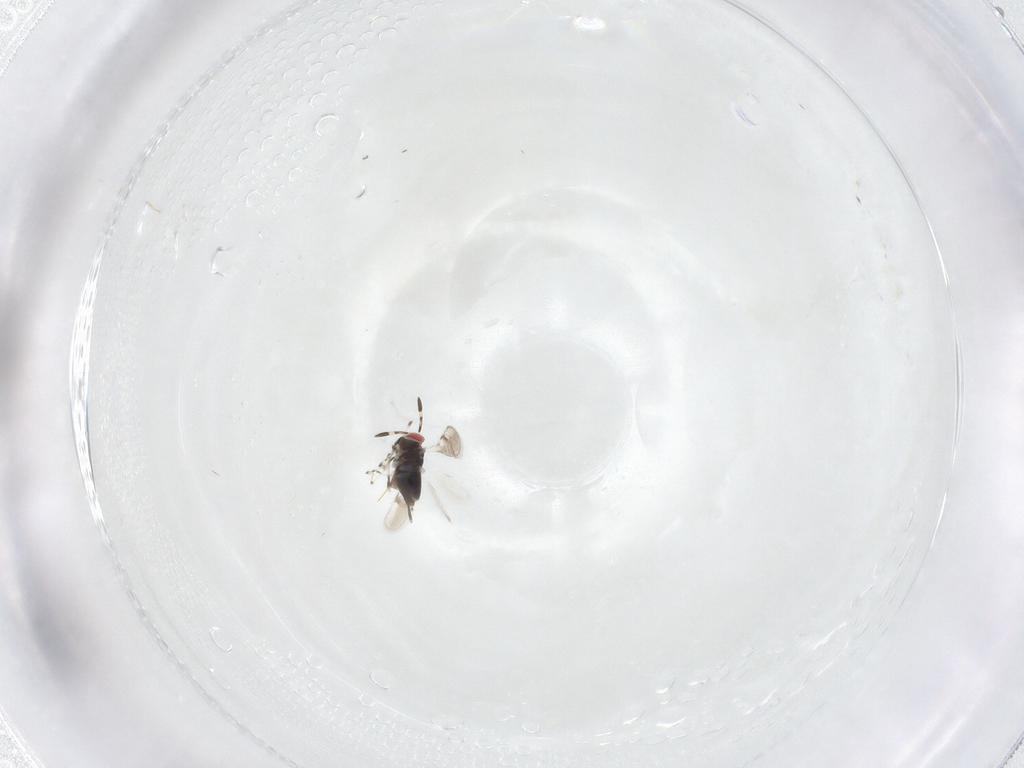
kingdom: Animalia
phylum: Arthropoda
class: Insecta
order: Hymenoptera
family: Azotidae
